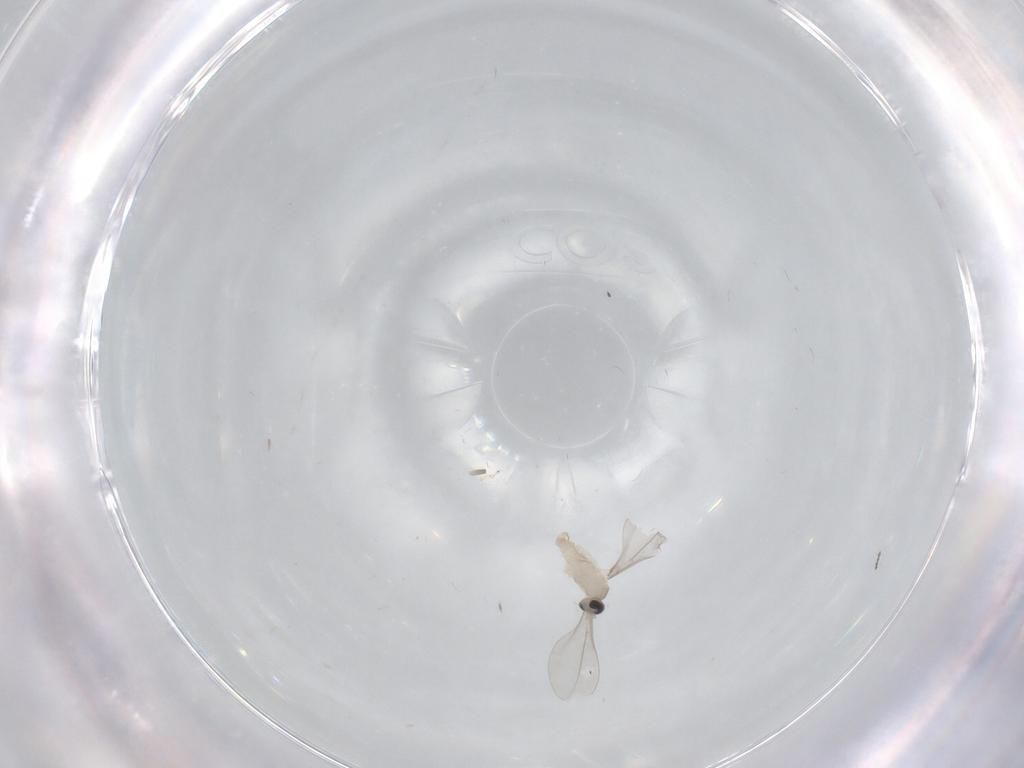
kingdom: Animalia
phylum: Arthropoda
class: Insecta
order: Diptera
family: Cecidomyiidae
